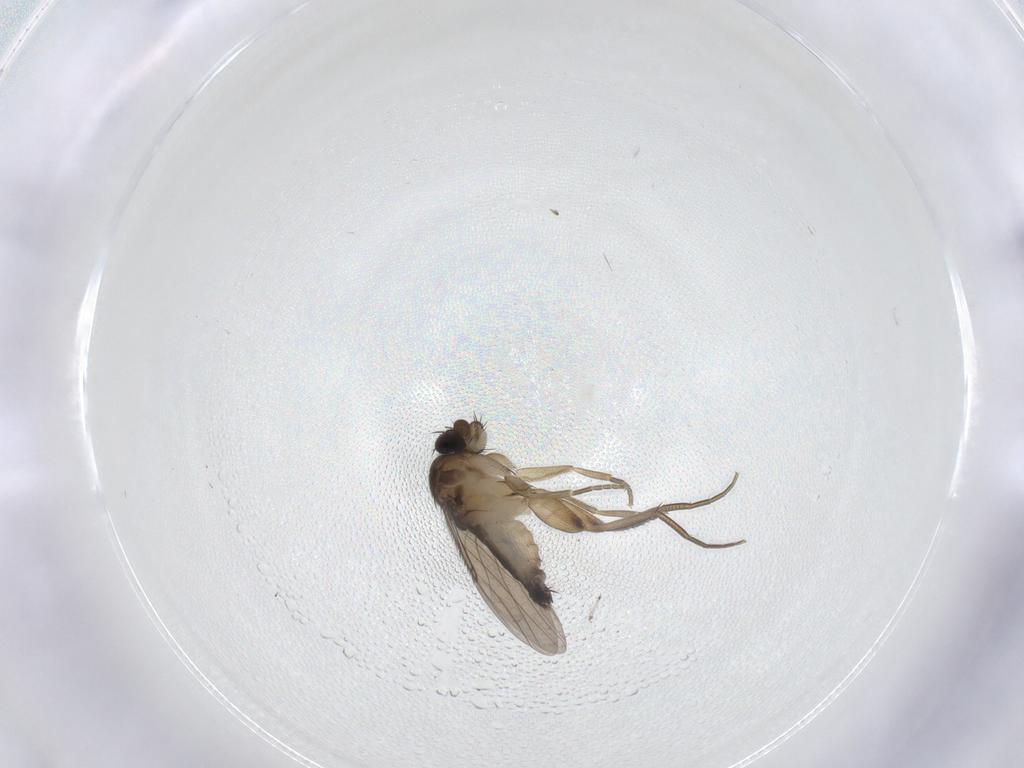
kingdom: Animalia
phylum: Arthropoda
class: Insecta
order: Diptera
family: Phoridae
